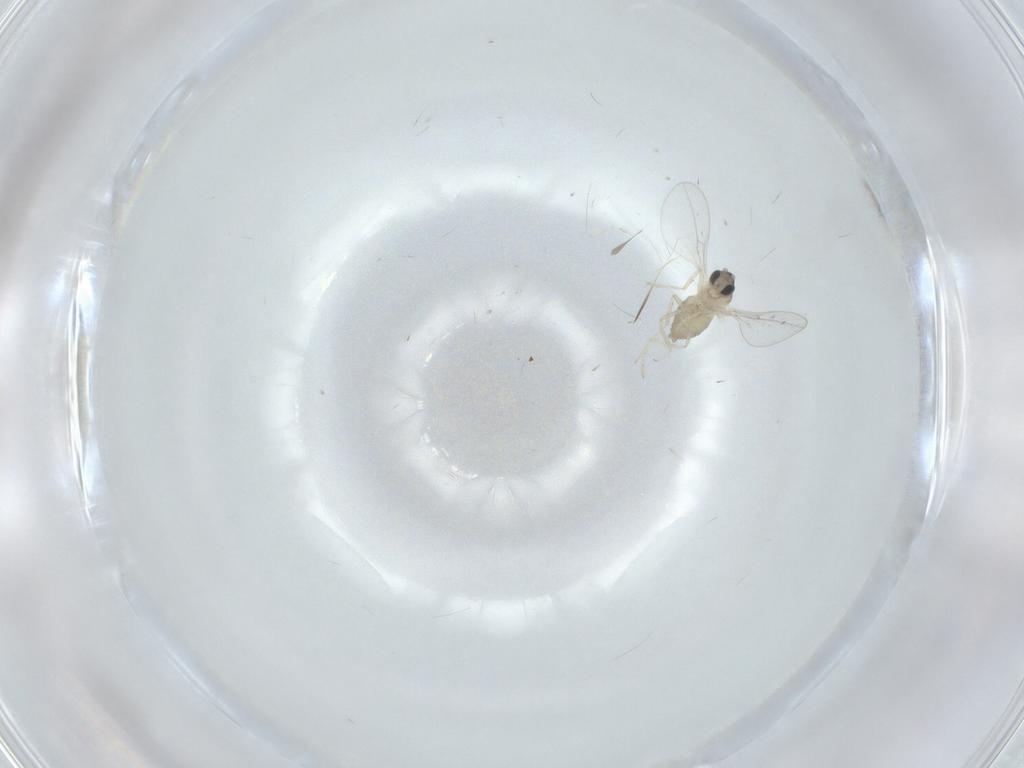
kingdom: Animalia
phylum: Arthropoda
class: Insecta
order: Diptera
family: Cecidomyiidae
